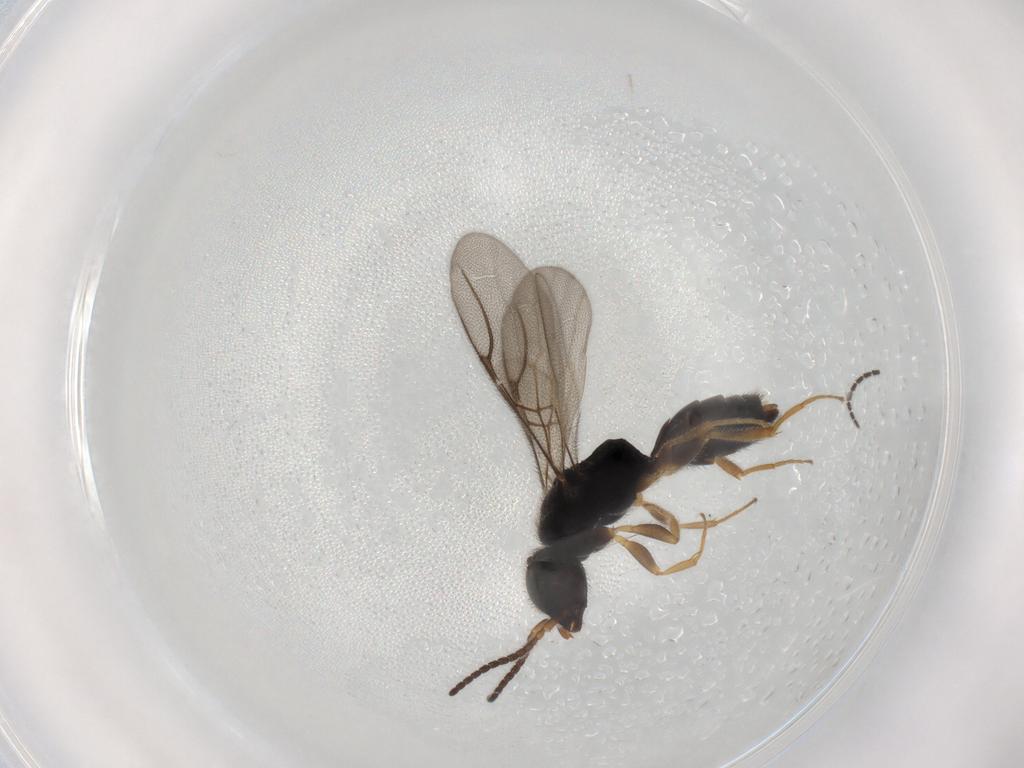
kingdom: Animalia
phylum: Arthropoda
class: Insecta
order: Hymenoptera
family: Bethylidae
